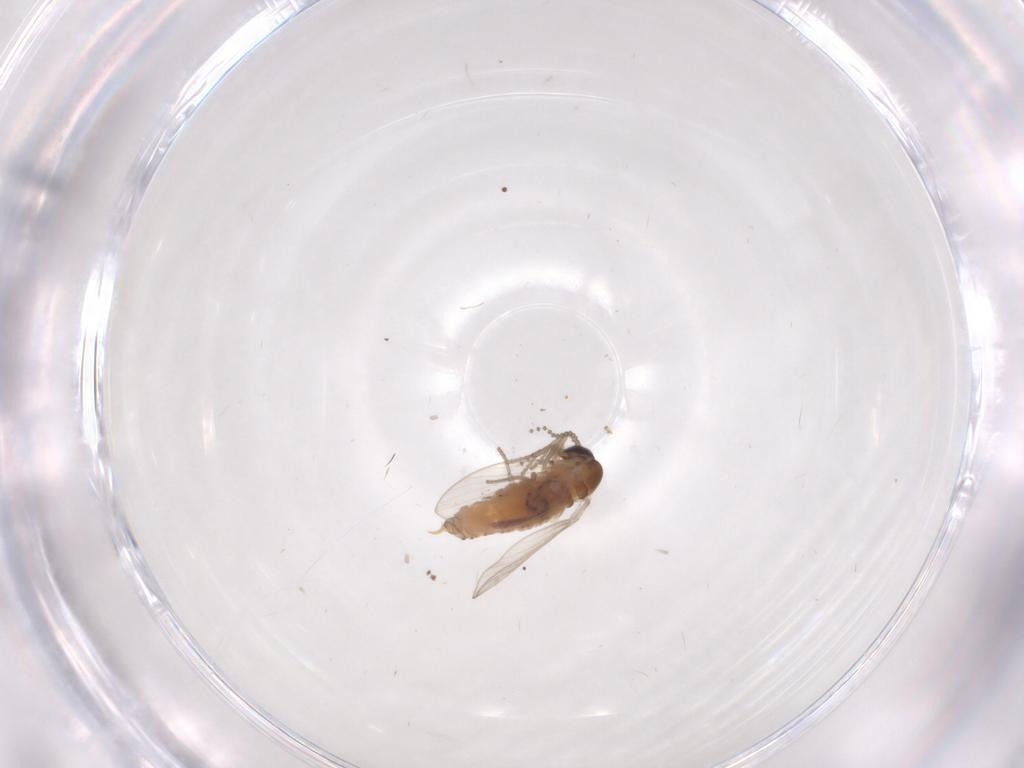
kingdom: Animalia
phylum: Arthropoda
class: Insecta
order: Diptera
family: Psychodidae
